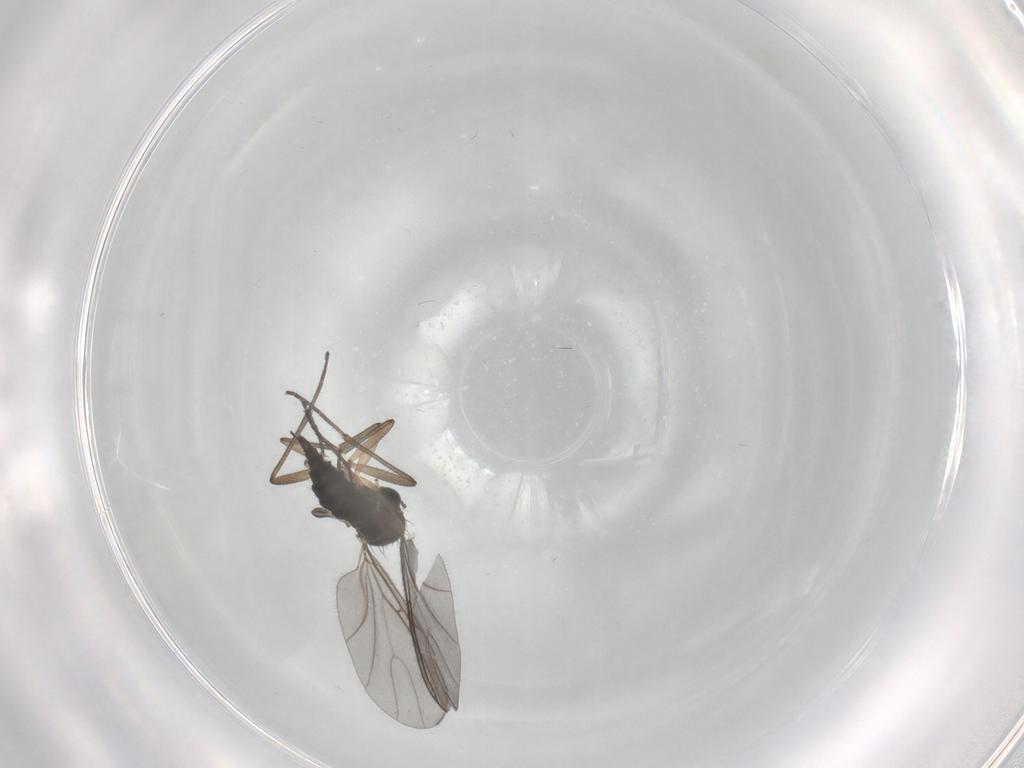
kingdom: Animalia
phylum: Arthropoda
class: Insecta
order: Diptera
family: Sciaridae
